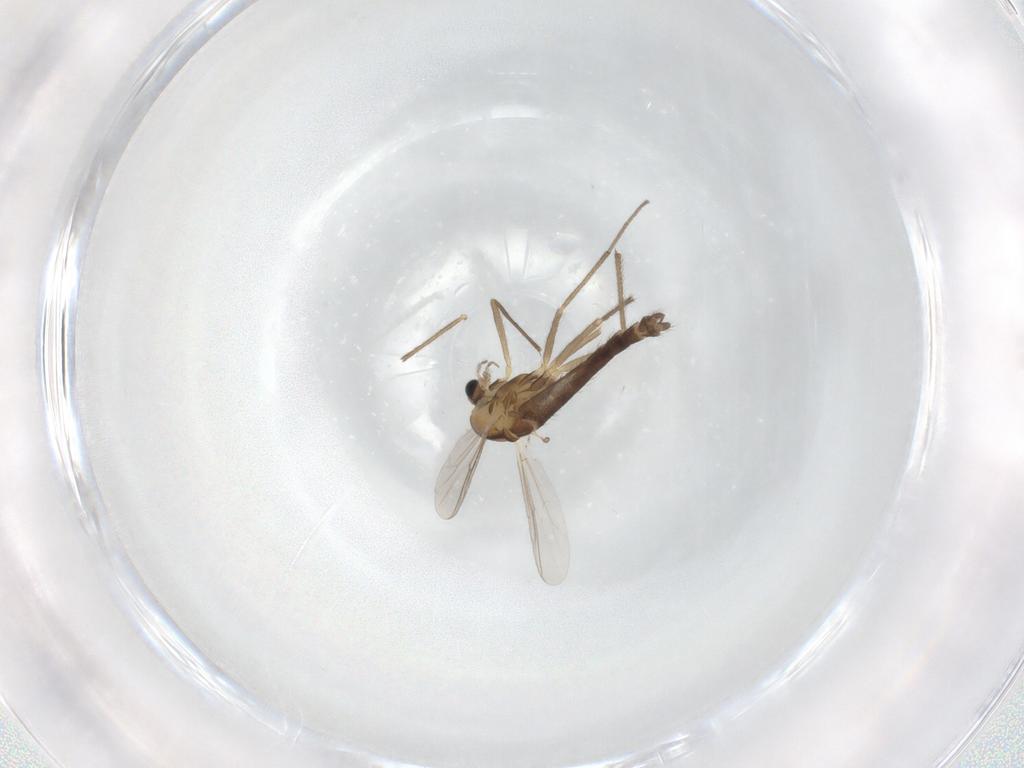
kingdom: Animalia
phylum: Arthropoda
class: Insecta
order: Diptera
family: Chironomidae
